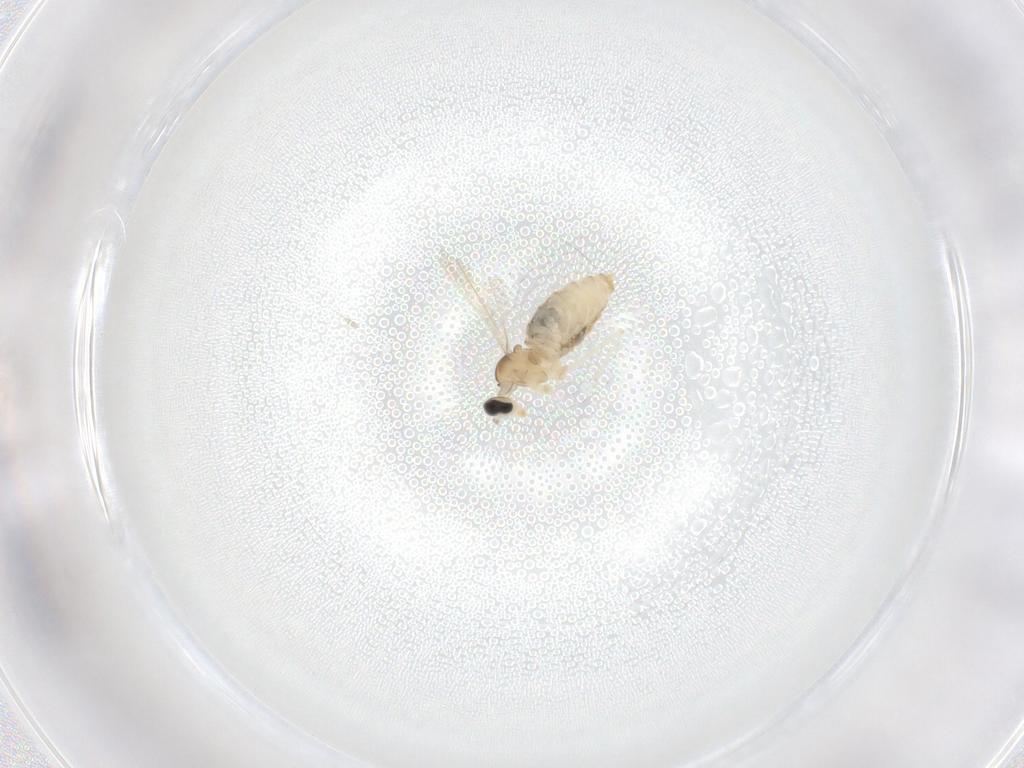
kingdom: Animalia
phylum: Arthropoda
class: Insecta
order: Diptera
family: Cecidomyiidae
